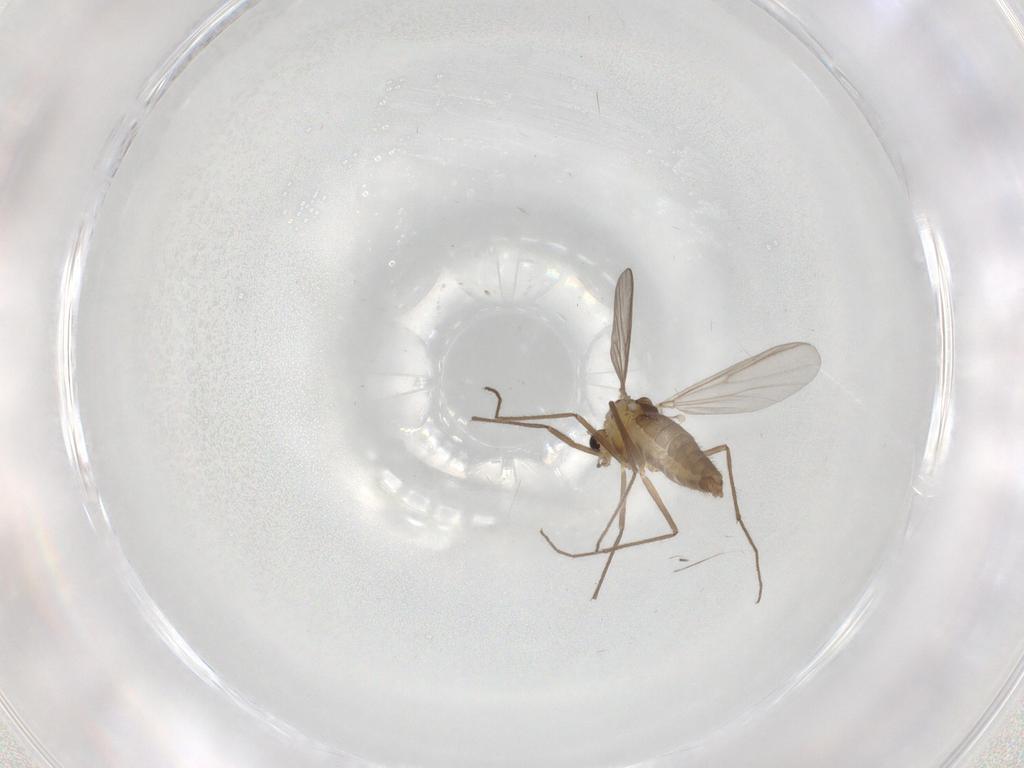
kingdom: Animalia
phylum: Arthropoda
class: Insecta
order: Diptera
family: Chironomidae
